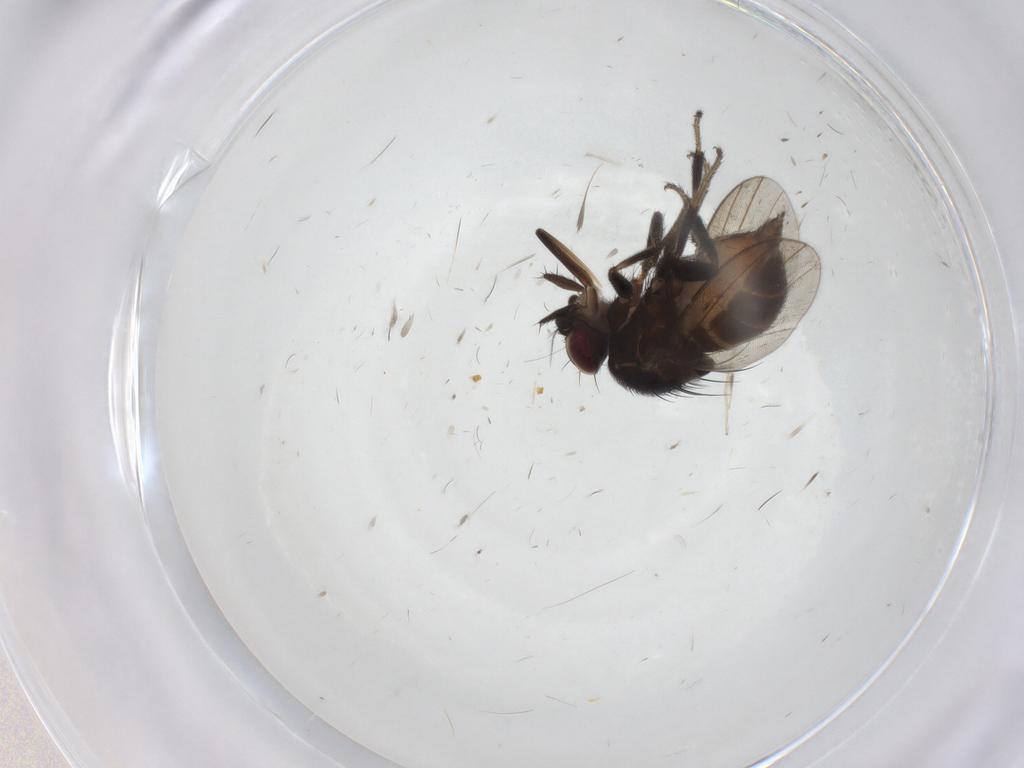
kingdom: Animalia
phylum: Arthropoda
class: Insecta
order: Diptera
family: Milichiidae
